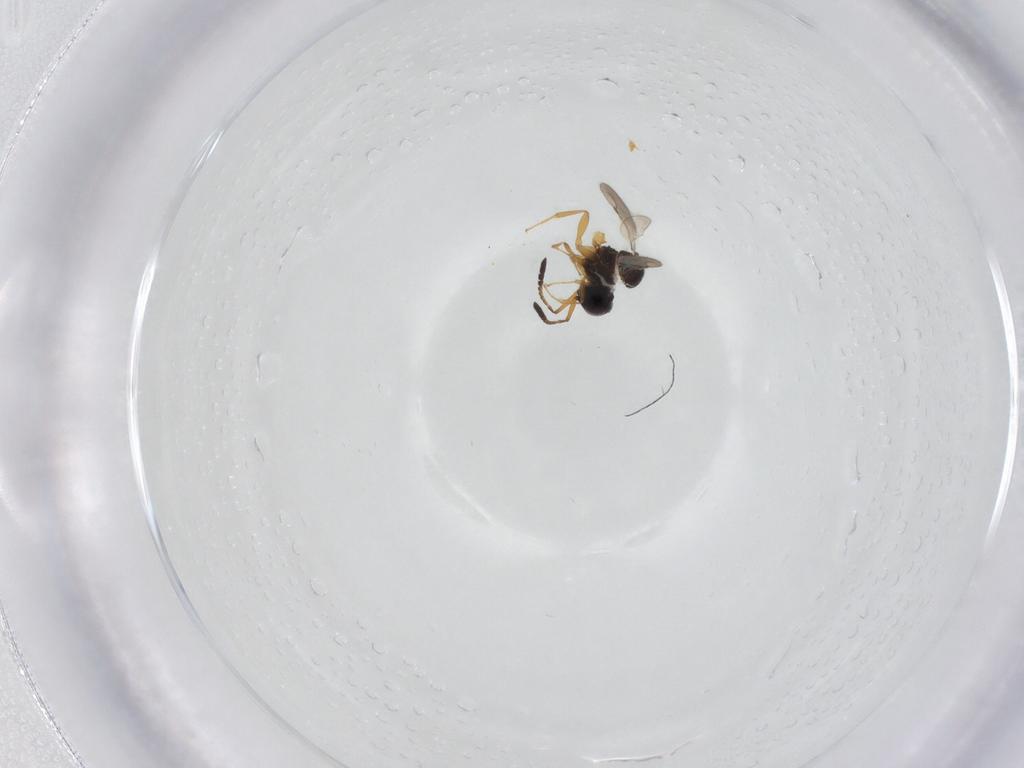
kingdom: Animalia
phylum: Arthropoda
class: Insecta
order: Hymenoptera
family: Ceraphronidae
